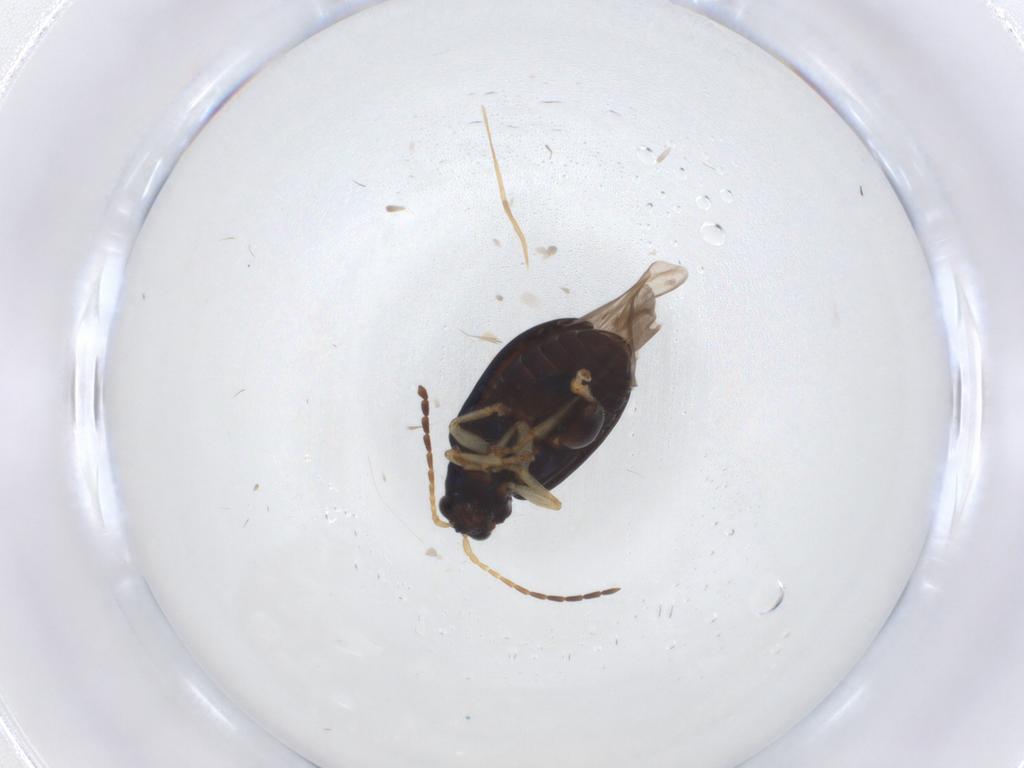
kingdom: Animalia
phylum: Arthropoda
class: Insecta
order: Coleoptera
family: Chrysomelidae
